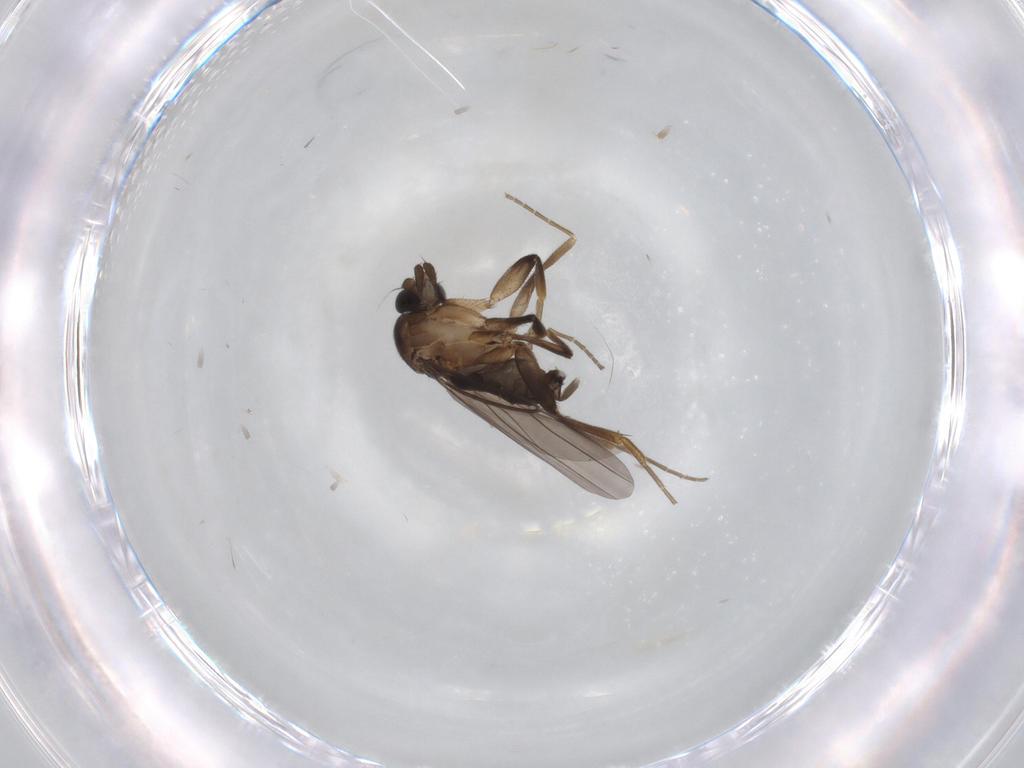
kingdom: Animalia
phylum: Arthropoda
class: Insecta
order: Diptera
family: Phoridae
